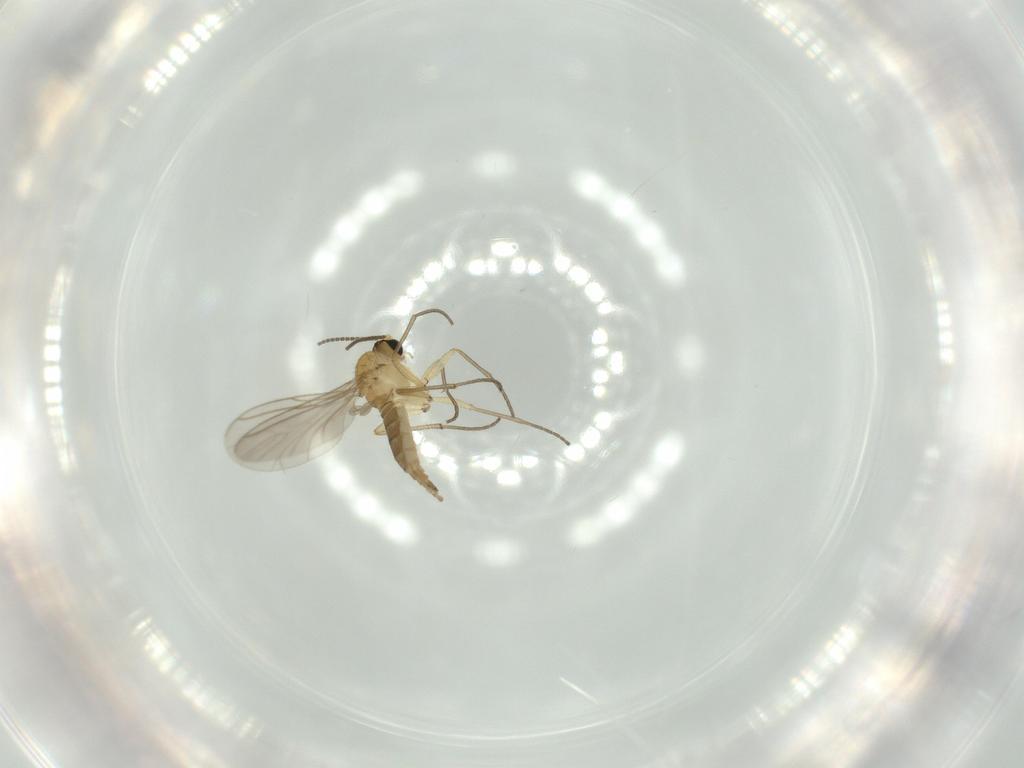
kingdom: Animalia
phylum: Arthropoda
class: Insecta
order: Diptera
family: Sciaridae
